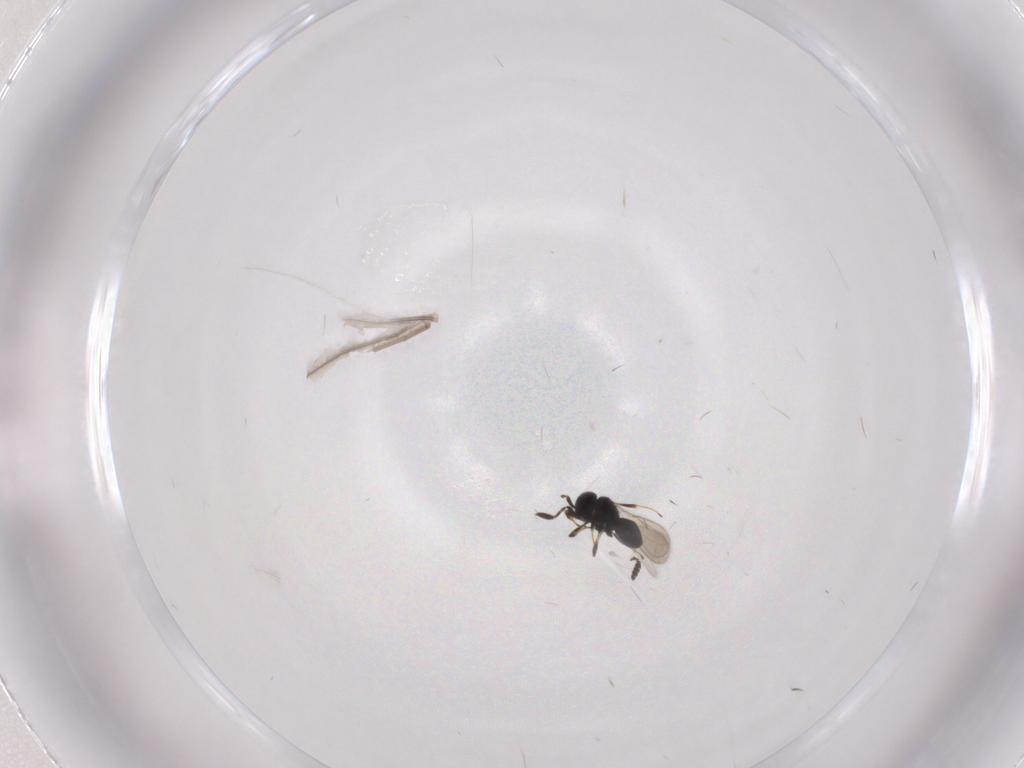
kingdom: Animalia
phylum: Arthropoda
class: Insecta
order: Hymenoptera
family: Scelionidae
